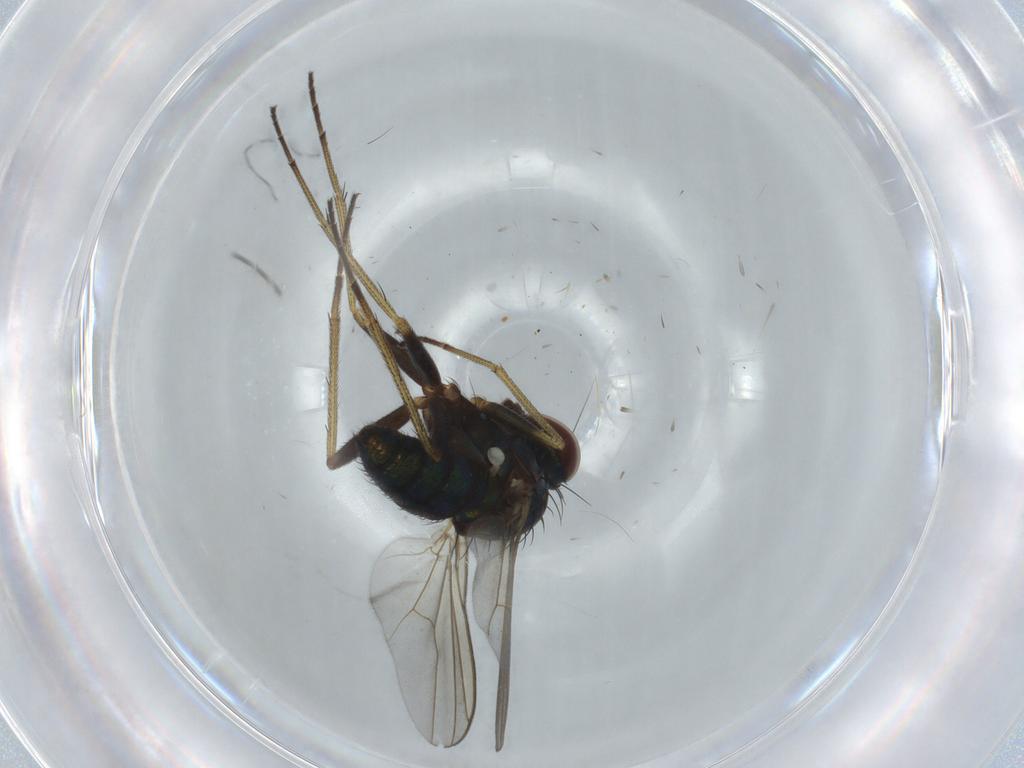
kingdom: Animalia
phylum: Arthropoda
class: Insecta
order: Diptera
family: Dolichopodidae
